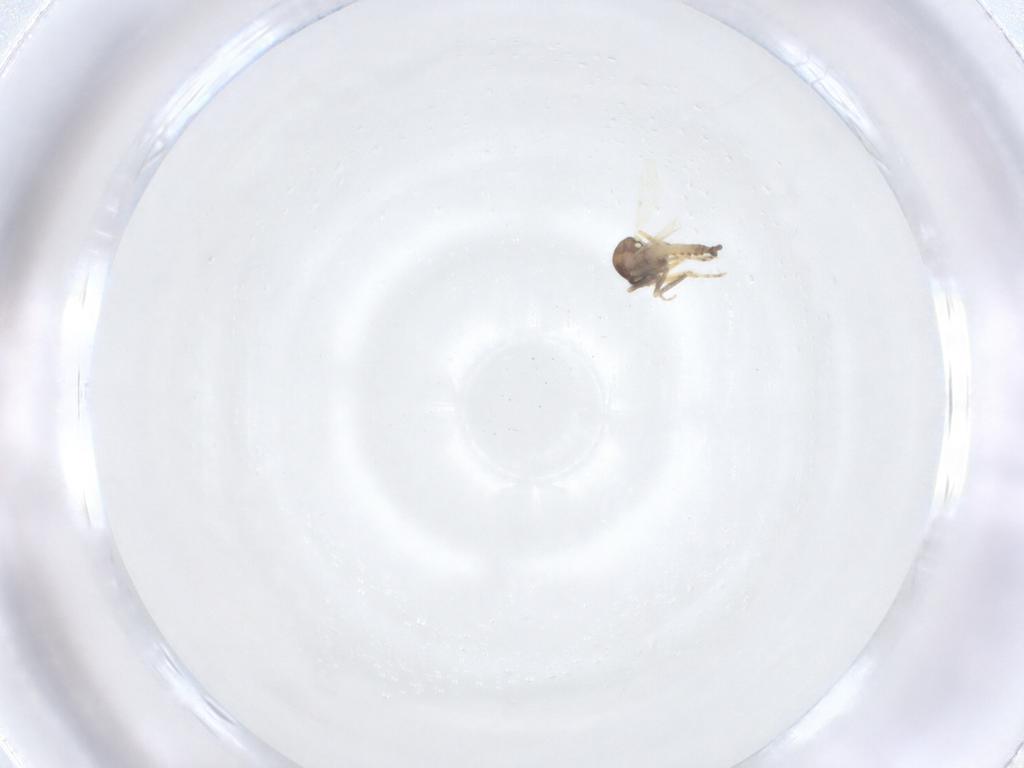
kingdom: Animalia
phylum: Arthropoda
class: Insecta
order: Diptera
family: Ceratopogonidae
